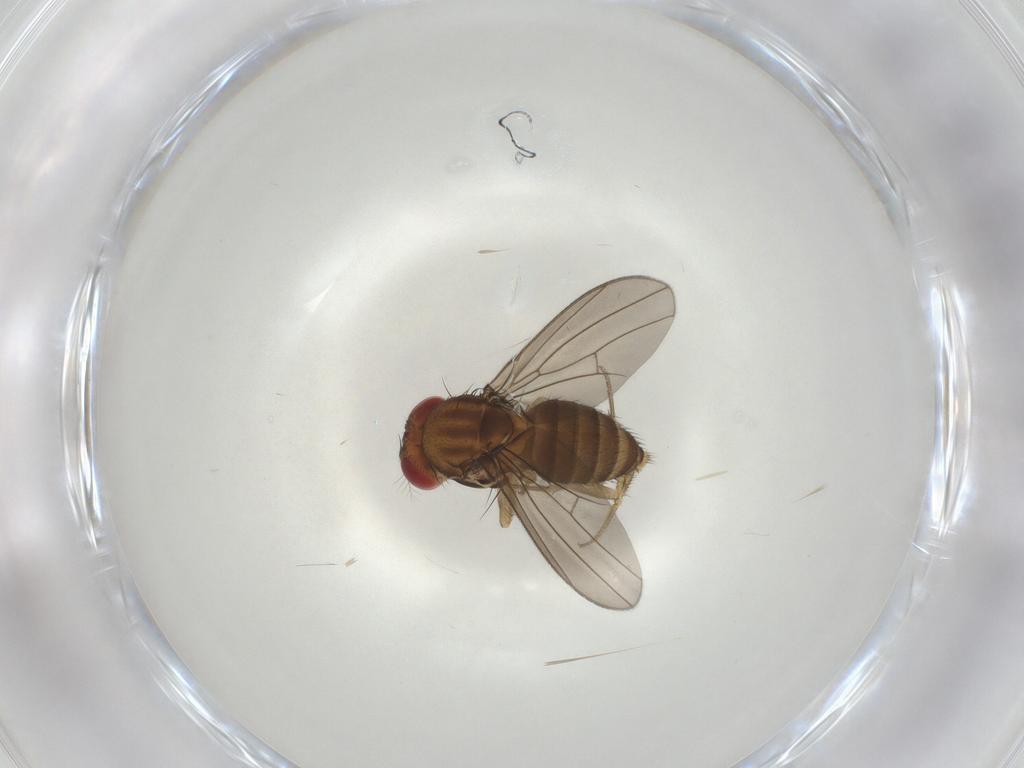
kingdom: Animalia
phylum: Arthropoda
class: Insecta
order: Diptera
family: Drosophilidae
